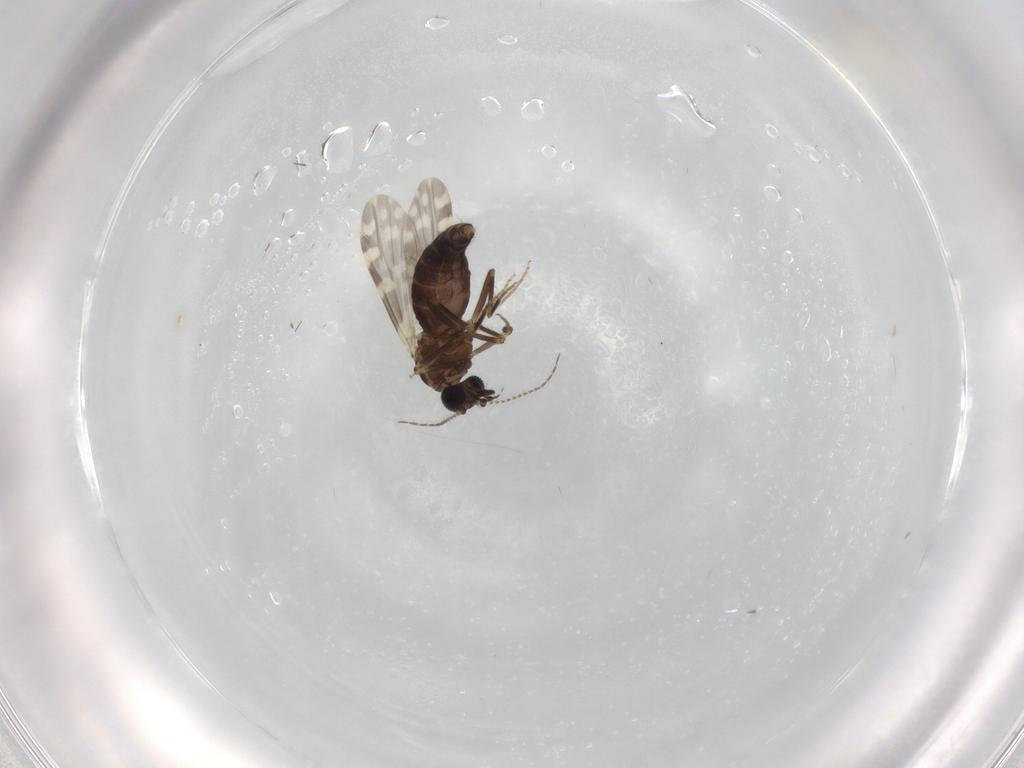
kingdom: Animalia
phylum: Arthropoda
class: Insecta
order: Diptera
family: Ceratopogonidae
